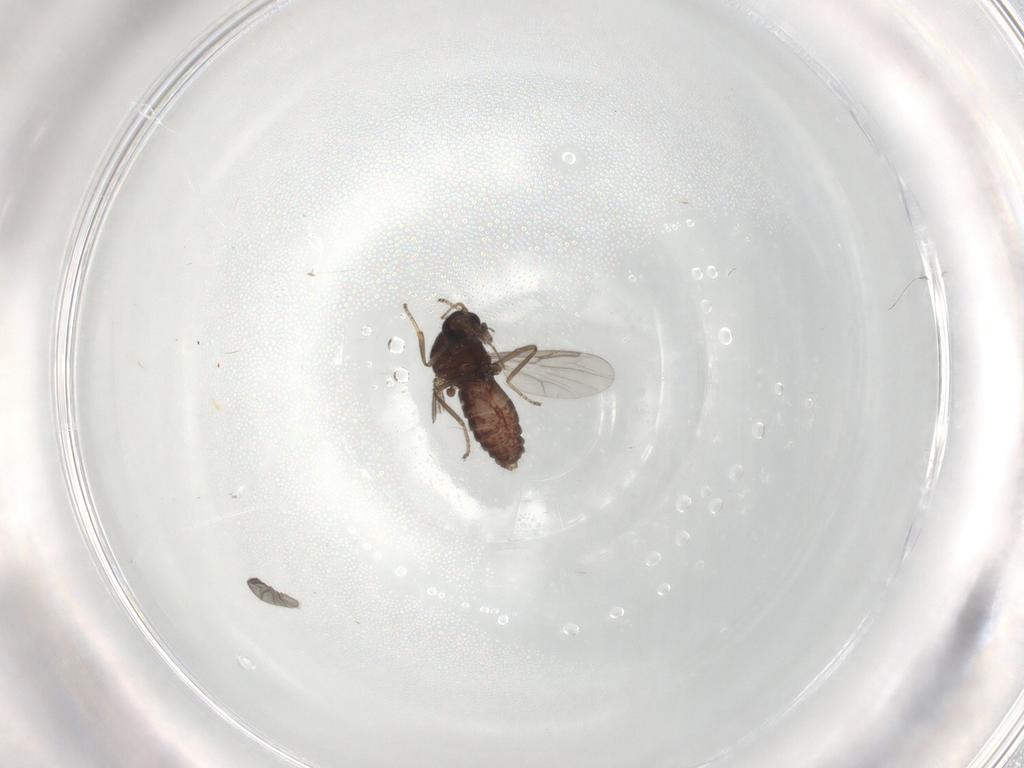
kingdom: Animalia
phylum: Arthropoda
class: Insecta
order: Diptera
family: Ceratopogonidae
